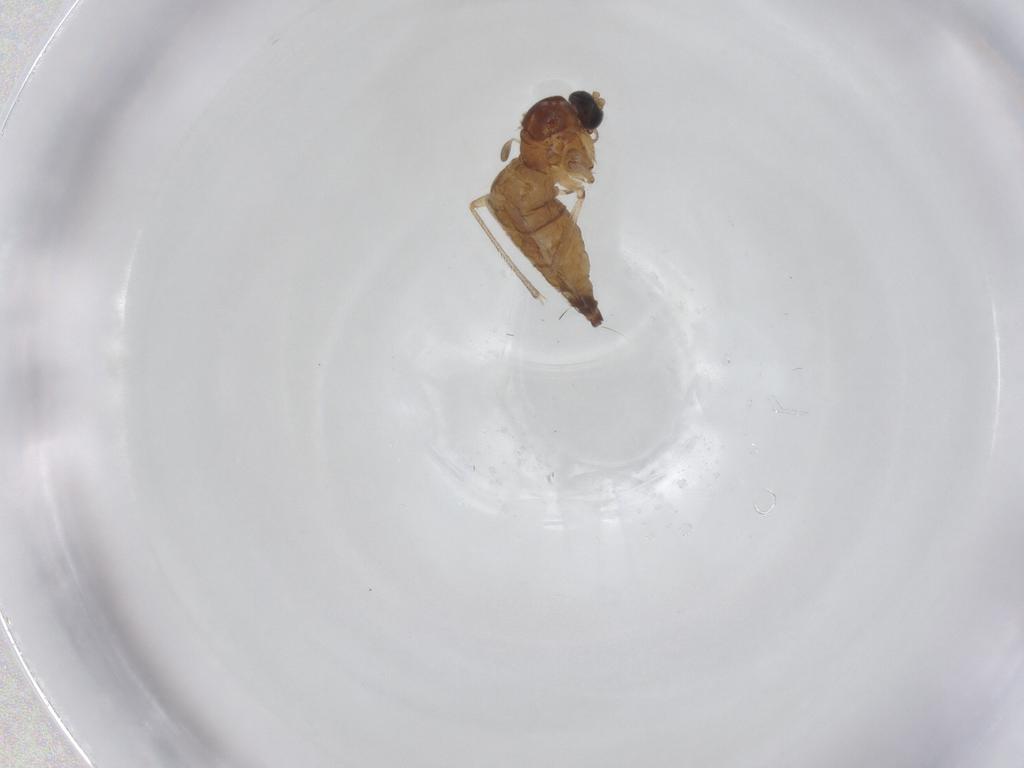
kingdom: Animalia
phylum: Arthropoda
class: Insecta
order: Diptera
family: Sciaridae
